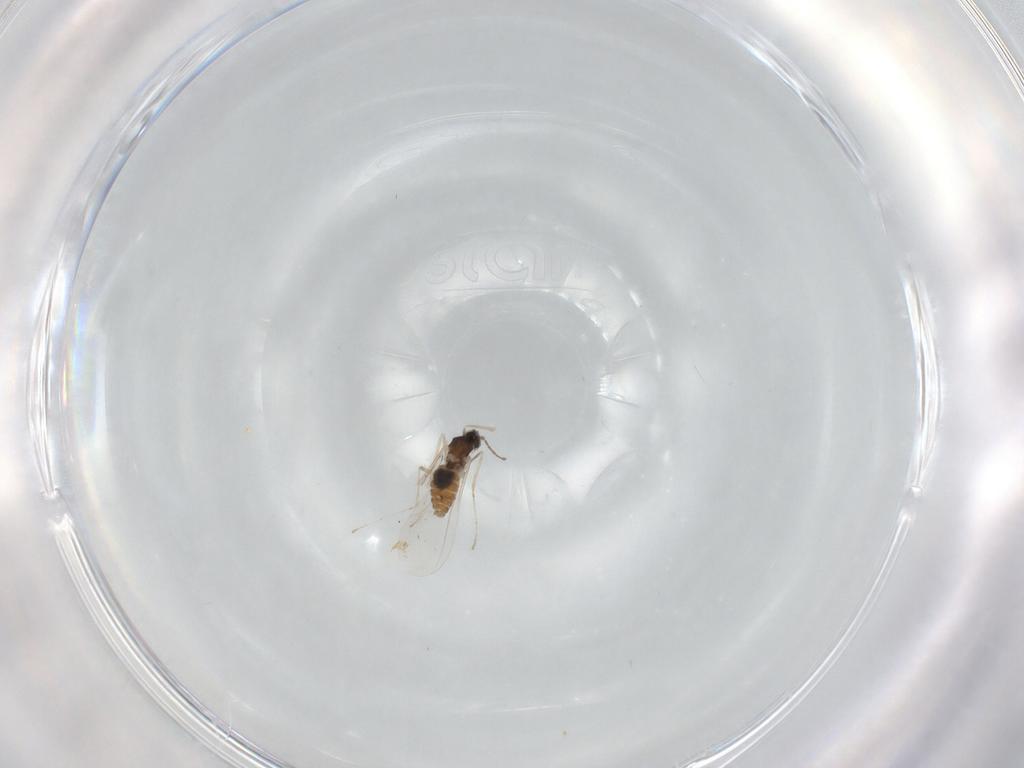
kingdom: Animalia
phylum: Arthropoda
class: Insecta
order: Diptera
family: Cecidomyiidae
